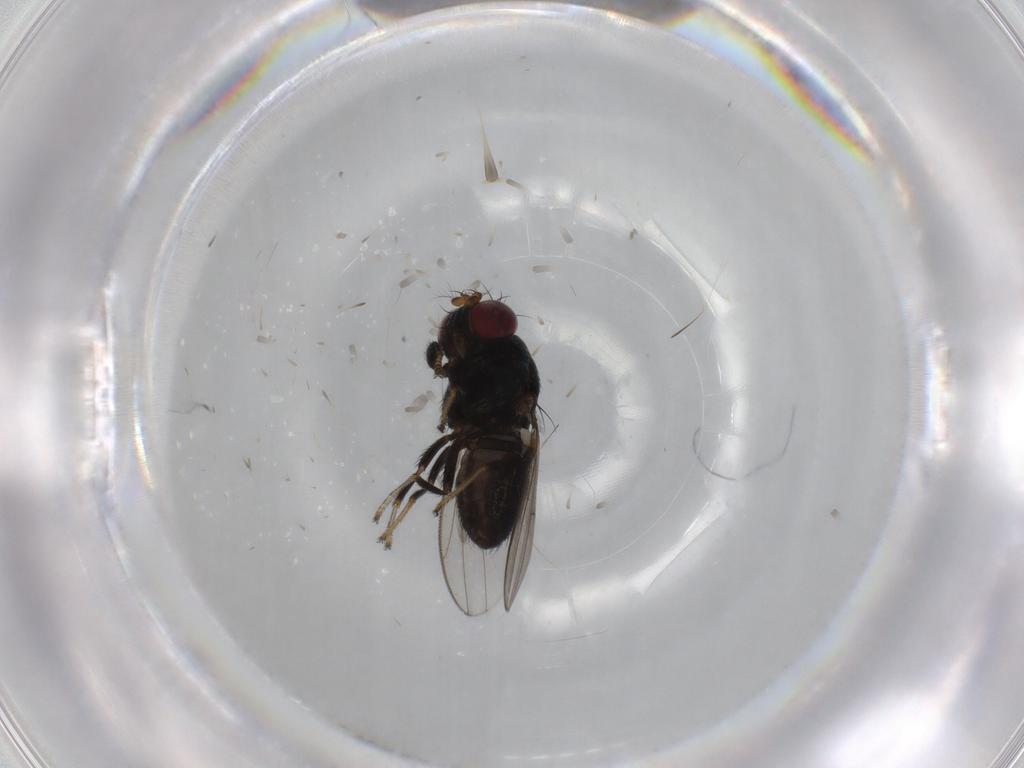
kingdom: Animalia
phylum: Arthropoda
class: Insecta
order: Diptera
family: Ephydridae
